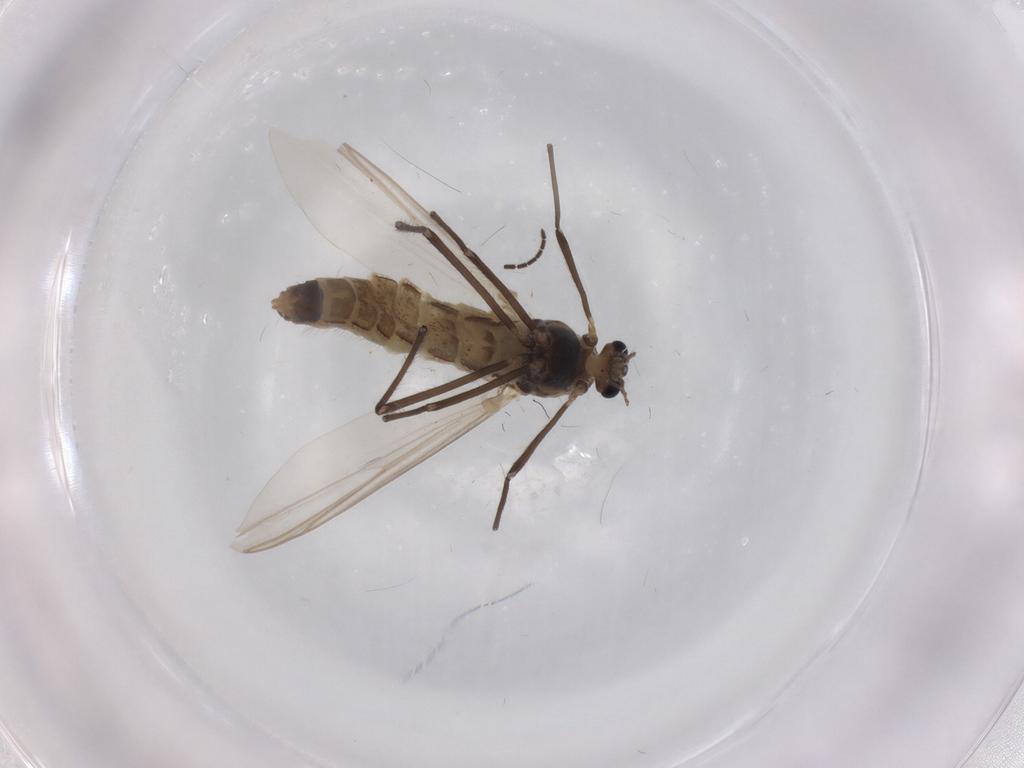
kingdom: Animalia
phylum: Arthropoda
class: Insecta
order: Diptera
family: Chironomidae
